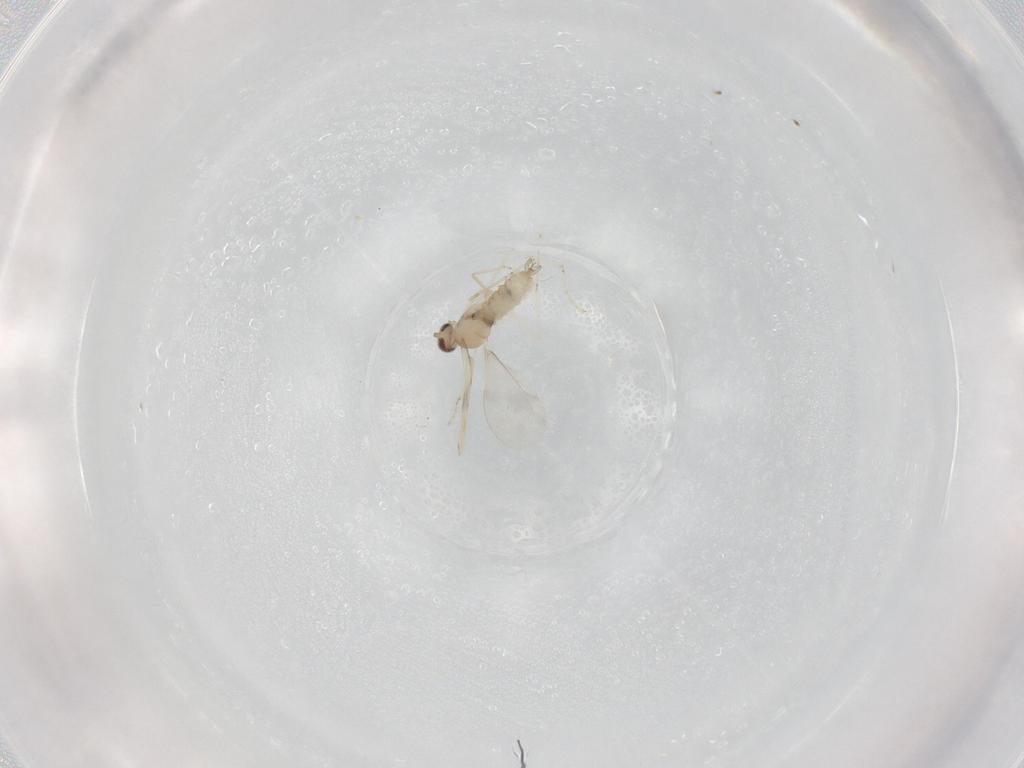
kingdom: Animalia
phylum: Arthropoda
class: Insecta
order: Diptera
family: Cecidomyiidae
